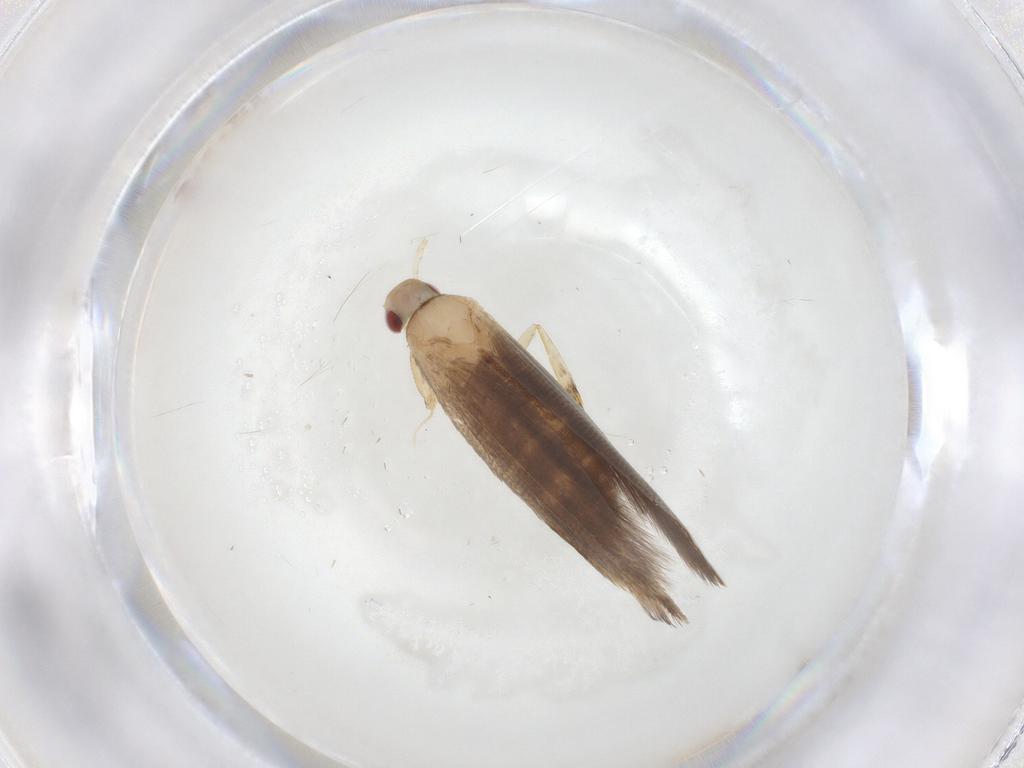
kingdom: Animalia
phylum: Arthropoda
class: Insecta
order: Lepidoptera
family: Cosmopterigidae
